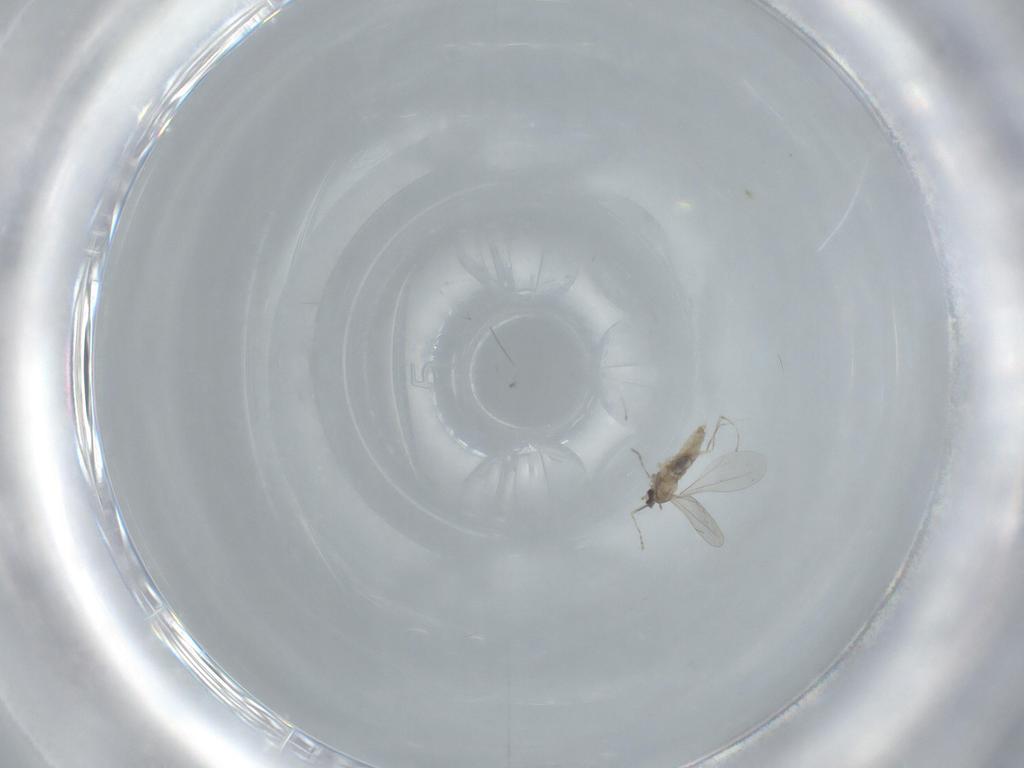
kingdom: Animalia
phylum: Arthropoda
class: Insecta
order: Diptera
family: Cecidomyiidae
